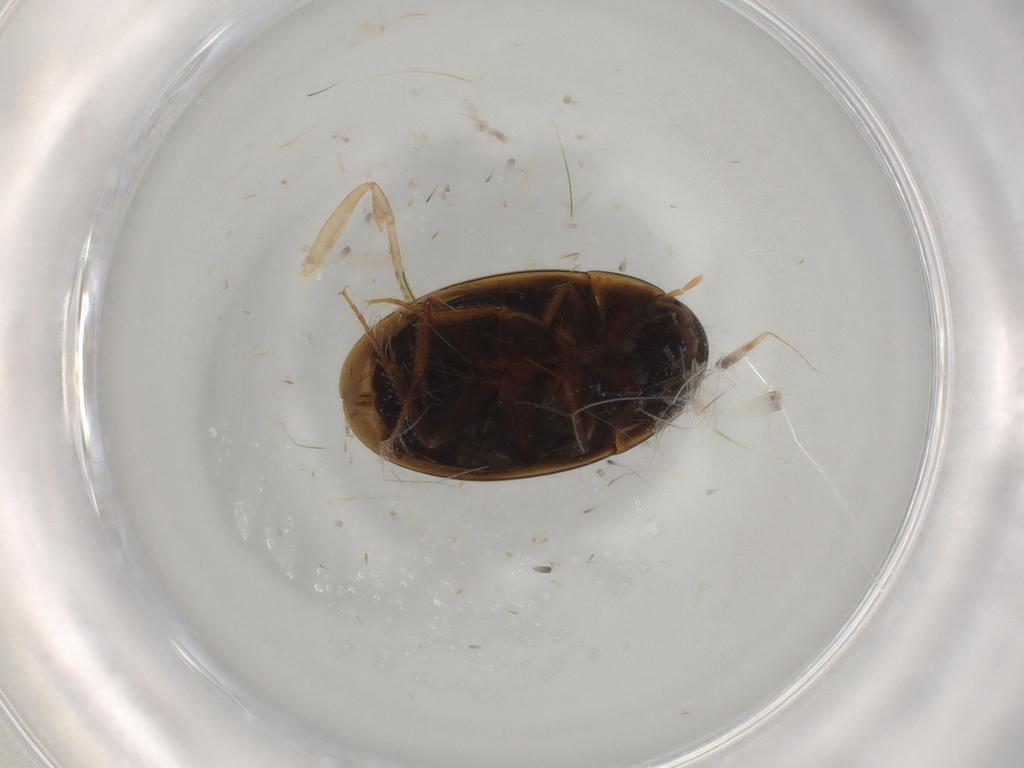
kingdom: Animalia
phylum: Arthropoda
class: Insecta
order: Coleoptera
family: Hydrophilidae
